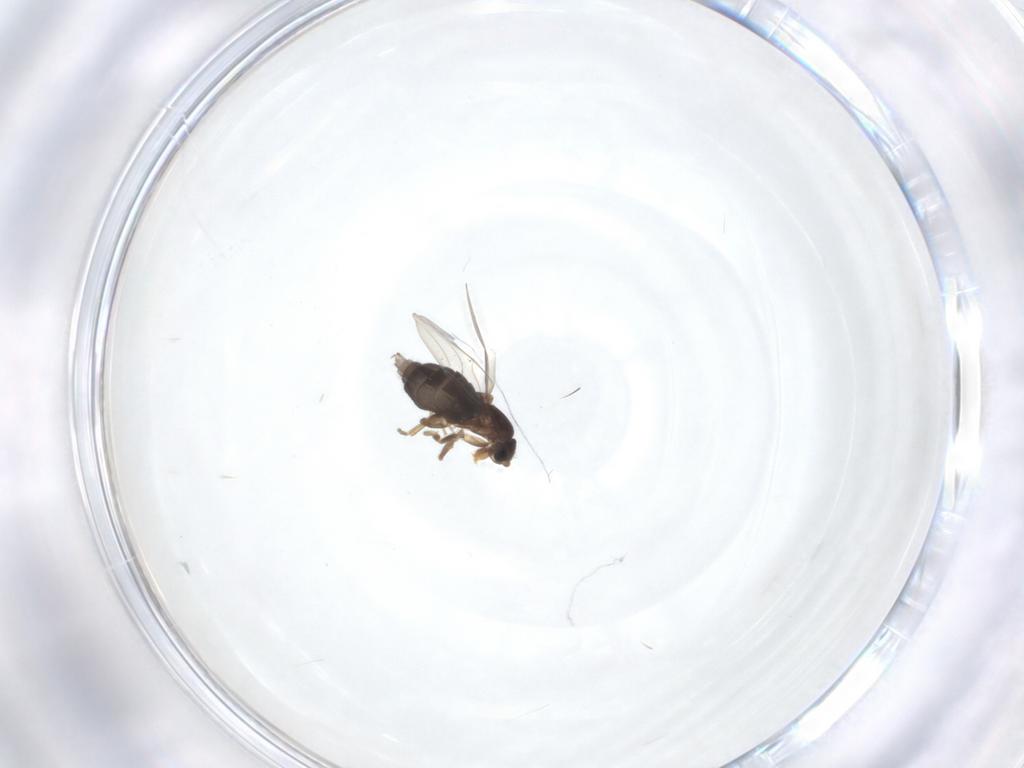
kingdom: Animalia
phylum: Arthropoda
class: Insecta
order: Diptera
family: Phoridae
